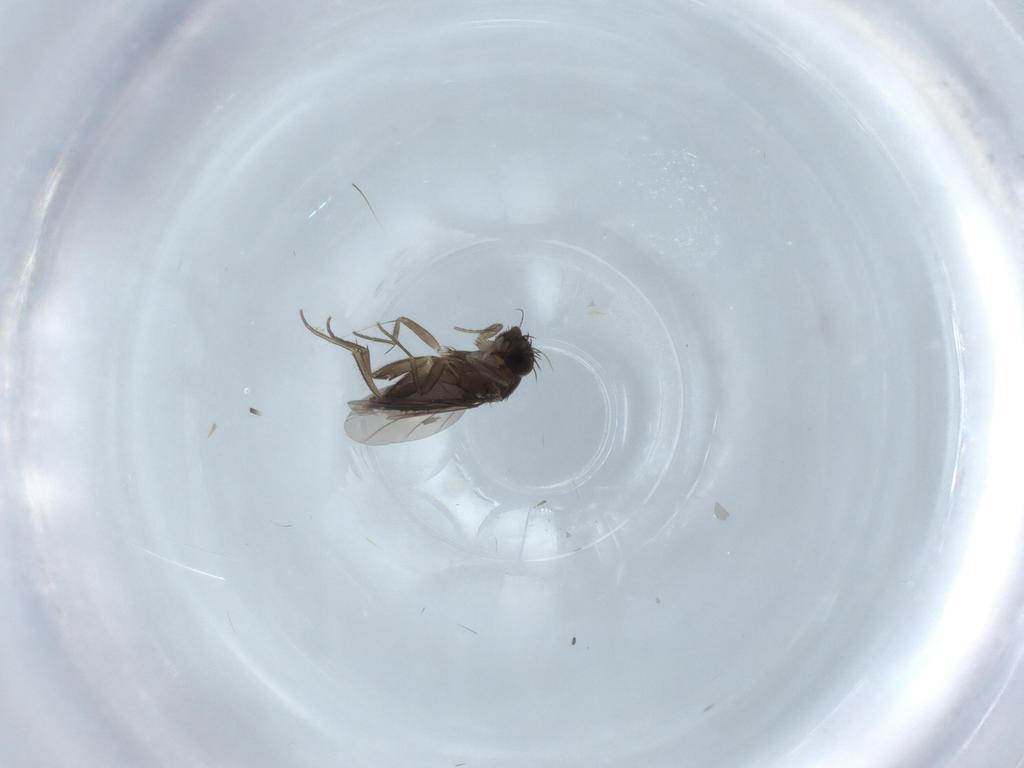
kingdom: Animalia
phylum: Arthropoda
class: Insecta
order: Diptera
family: Phoridae
